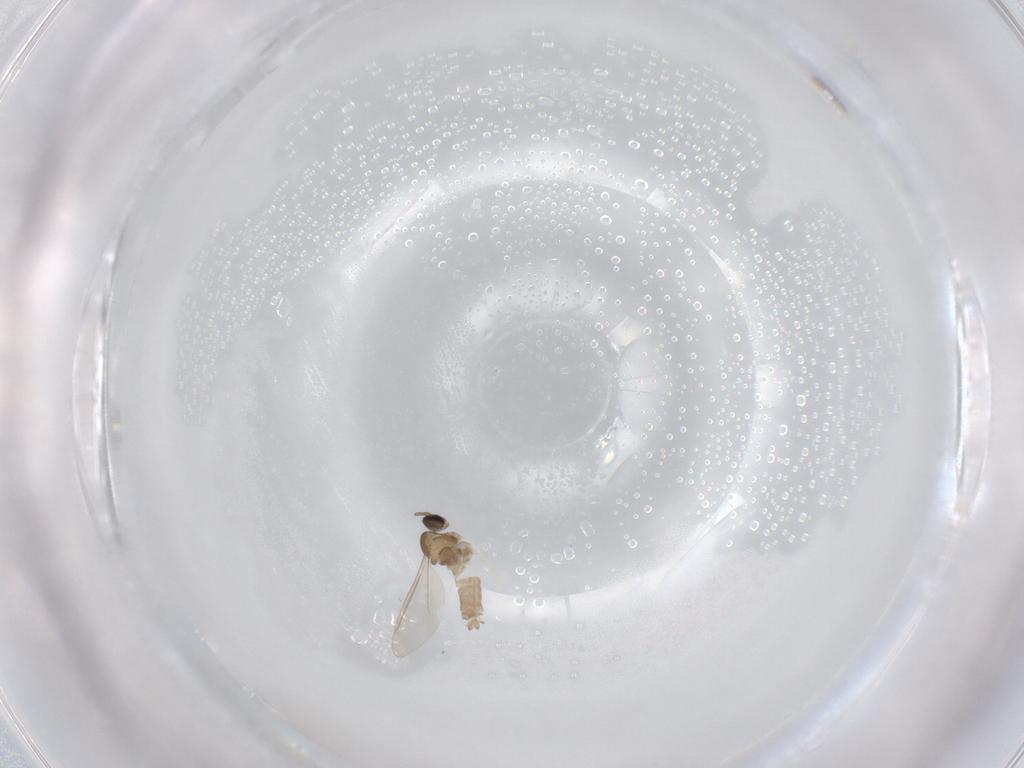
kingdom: Animalia
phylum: Arthropoda
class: Insecta
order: Diptera
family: Cecidomyiidae
